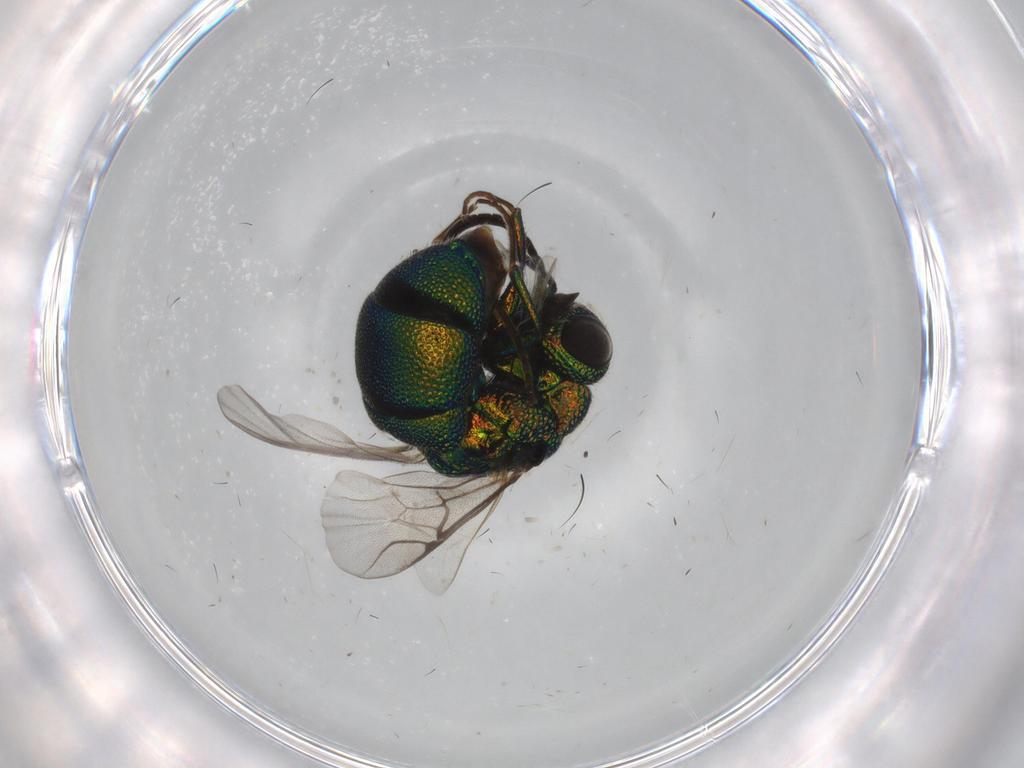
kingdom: Animalia
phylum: Arthropoda
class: Insecta
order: Hymenoptera
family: Chrysididae
